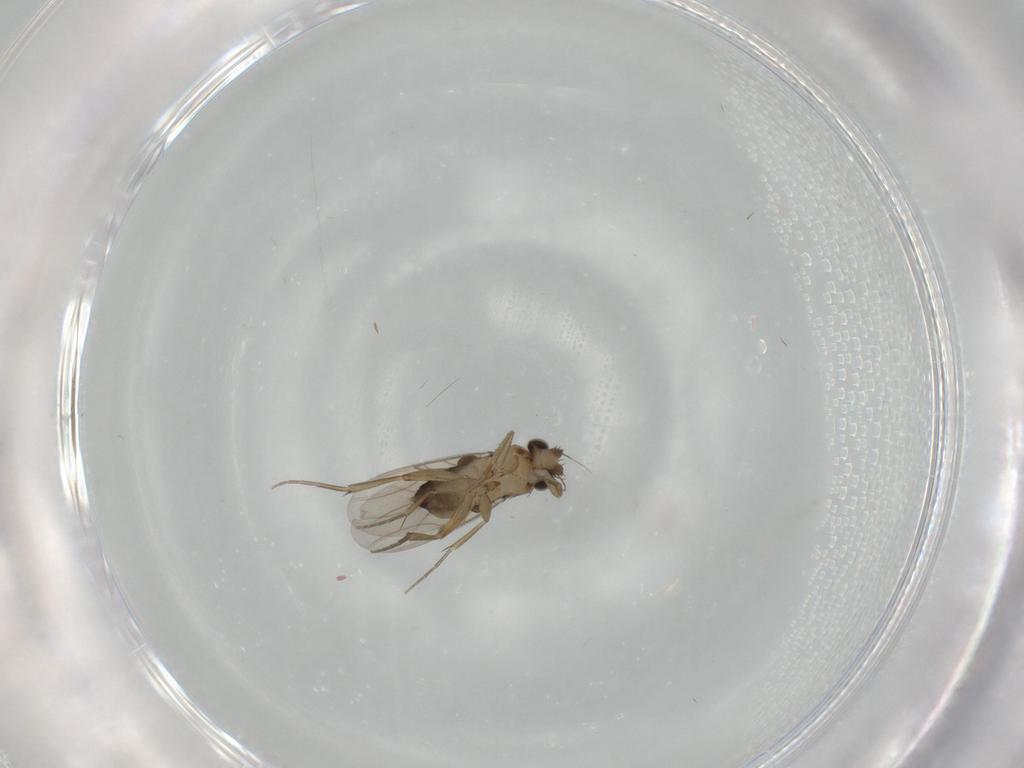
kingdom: Animalia
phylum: Arthropoda
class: Insecta
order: Diptera
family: Phoridae
